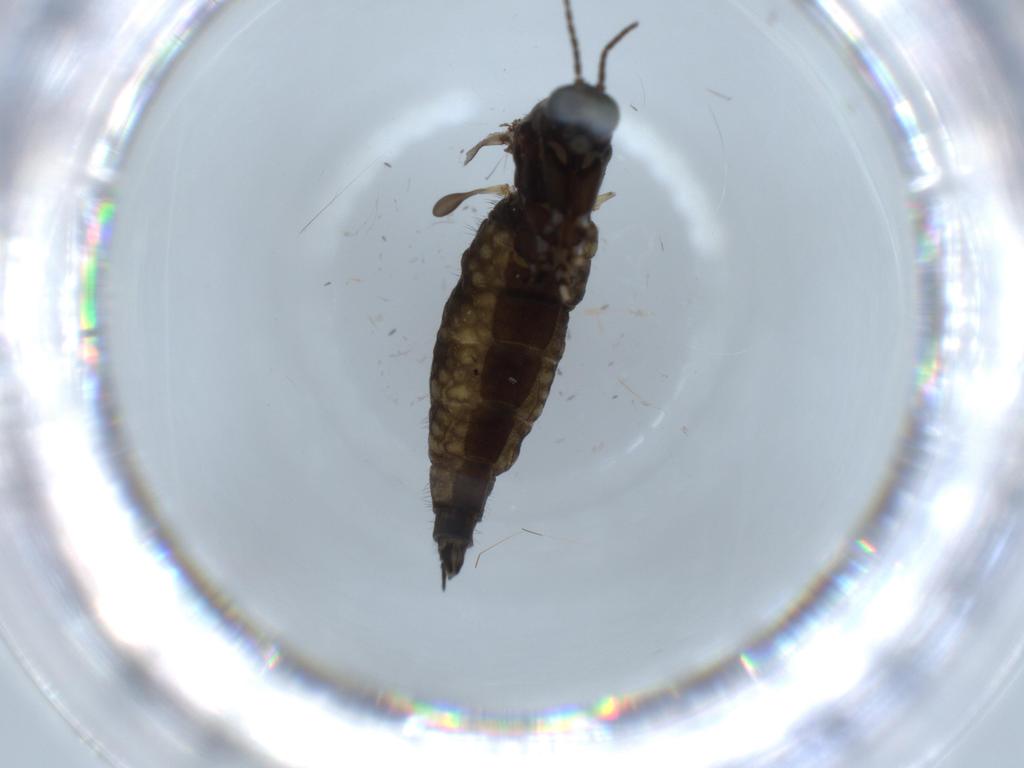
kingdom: Animalia
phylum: Arthropoda
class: Insecta
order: Diptera
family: Sciaridae
